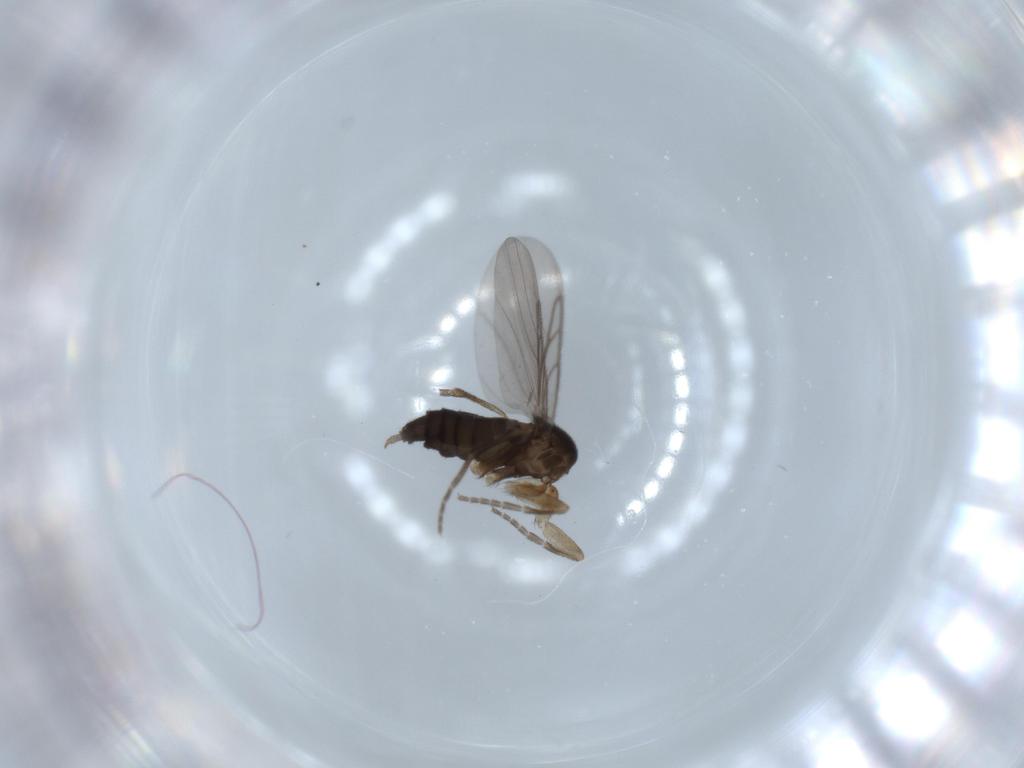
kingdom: Animalia
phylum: Arthropoda
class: Insecta
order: Diptera
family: Phoridae
